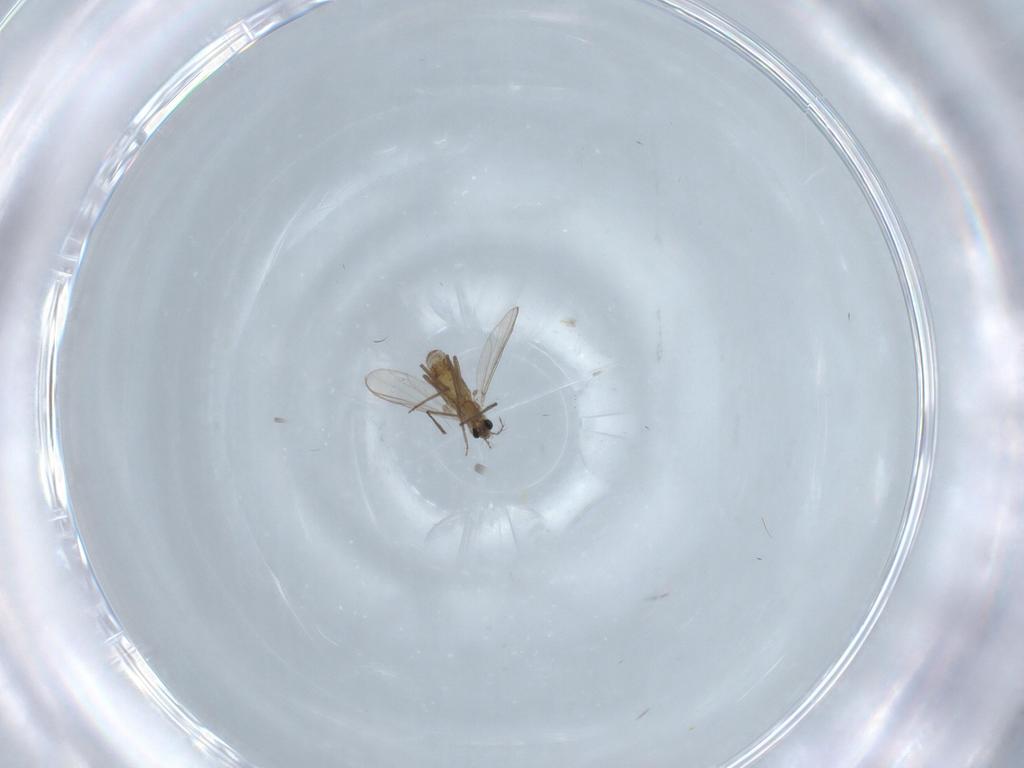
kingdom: Animalia
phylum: Arthropoda
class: Insecta
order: Diptera
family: Chironomidae
